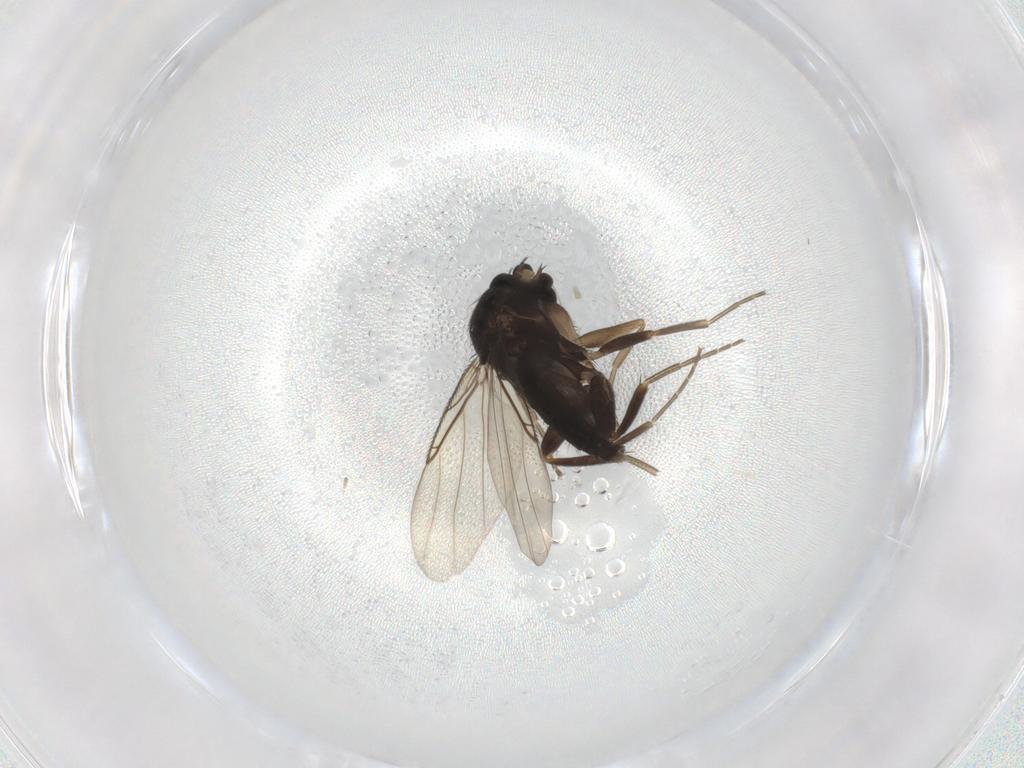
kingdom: Animalia
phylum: Arthropoda
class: Insecta
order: Diptera
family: Phoridae
